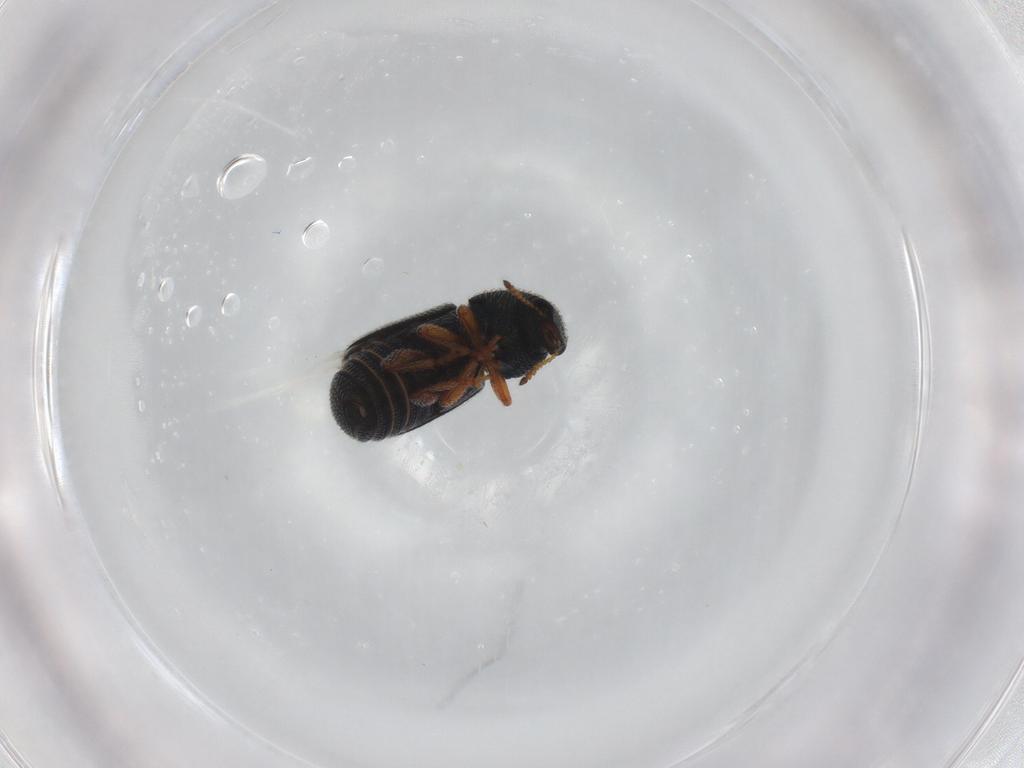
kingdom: Animalia
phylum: Arthropoda
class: Insecta
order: Coleoptera
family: Anthribidae
